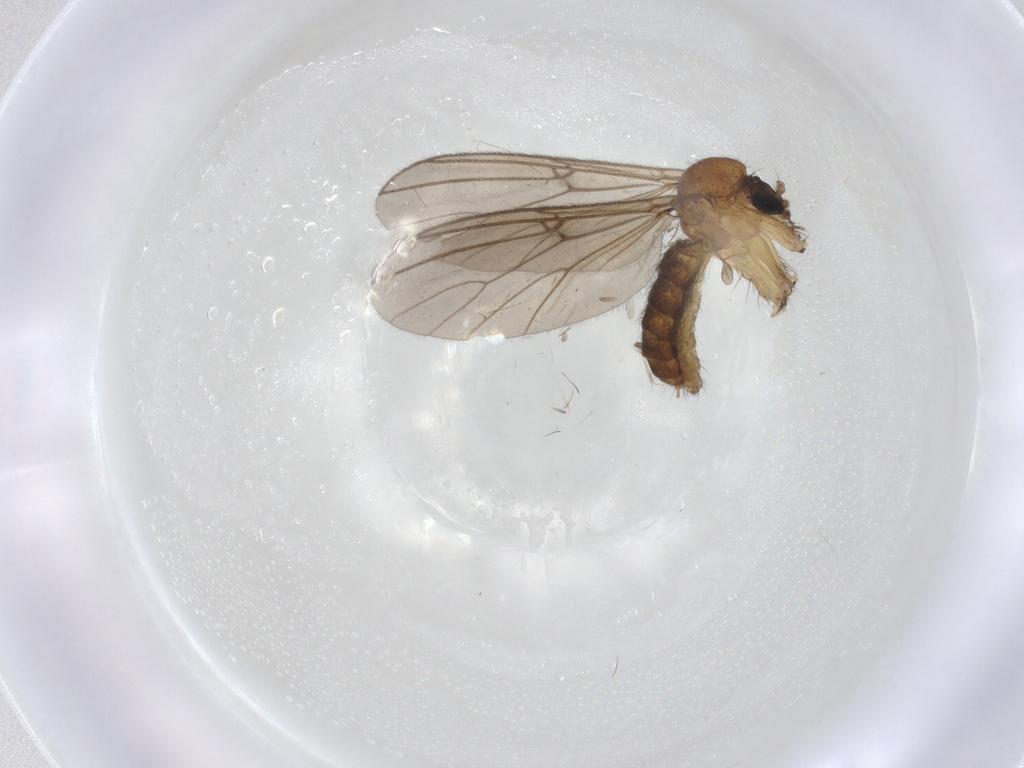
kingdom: Animalia
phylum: Arthropoda
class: Insecta
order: Diptera
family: Mycetophilidae
